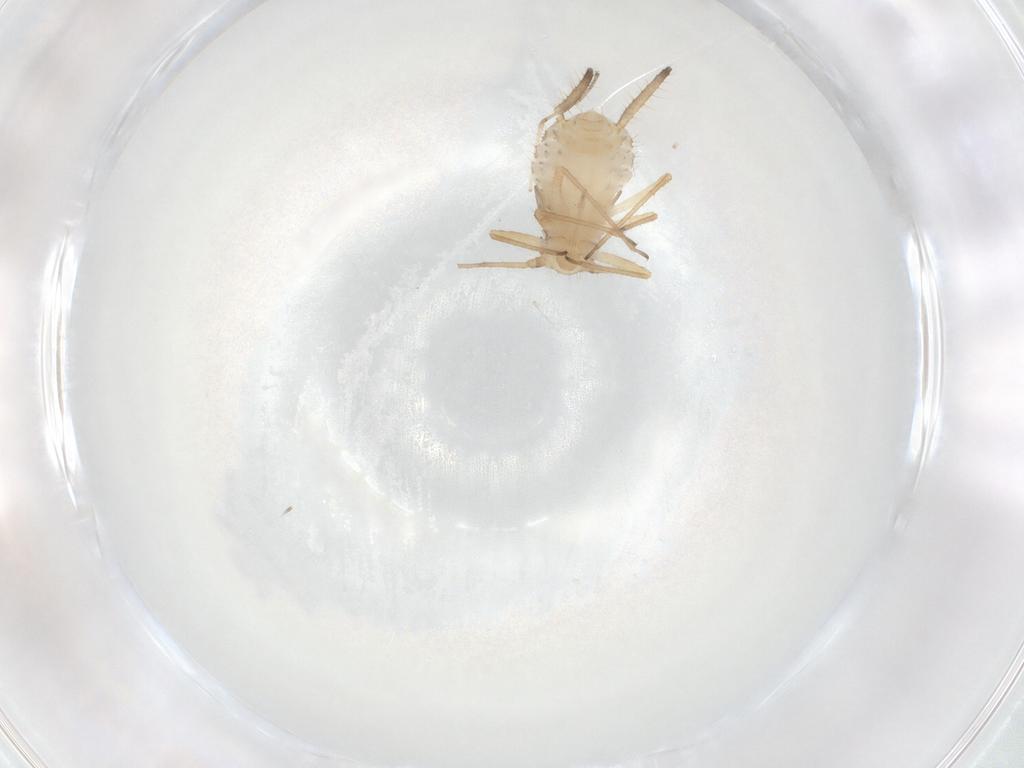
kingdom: Animalia
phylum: Arthropoda
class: Insecta
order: Hemiptera
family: Aphididae
